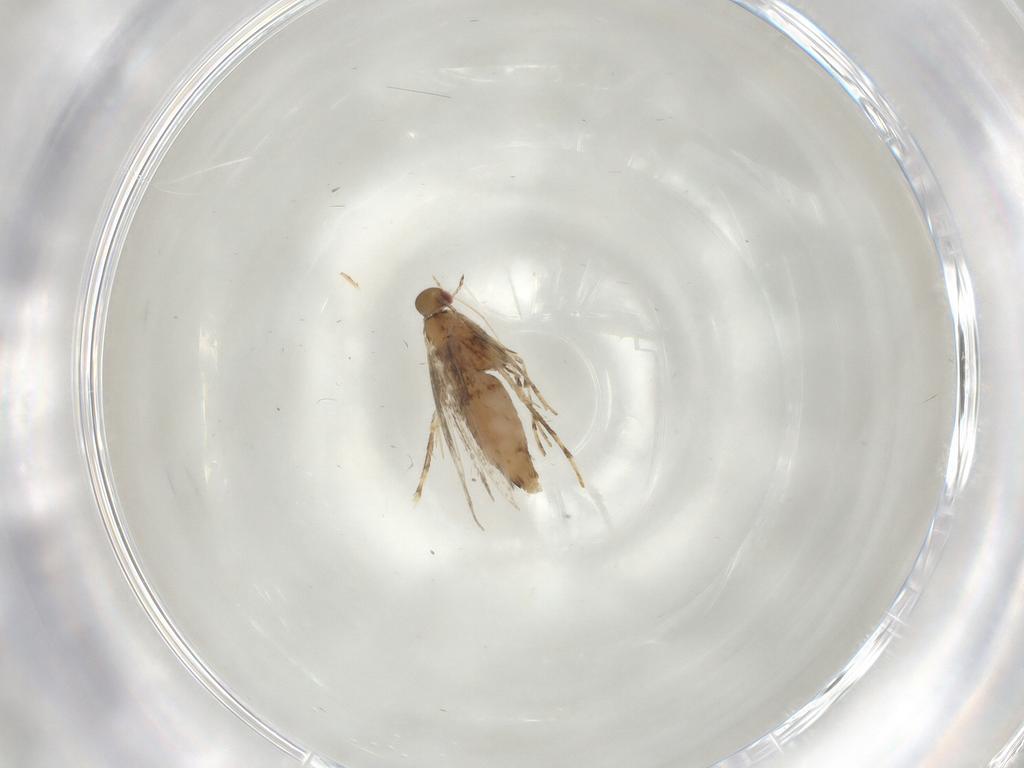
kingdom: Animalia
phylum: Arthropoda
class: Insecta
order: Lepidoptera
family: Gracillariidae
